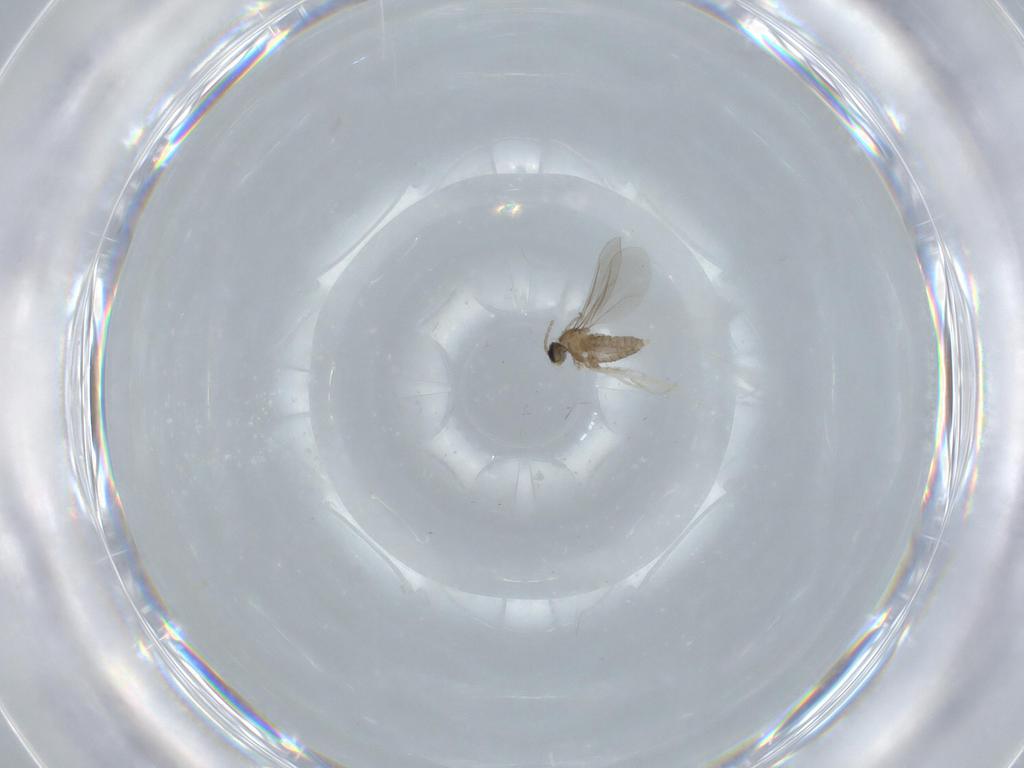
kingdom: Animalia
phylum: Arthropoda
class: Insecta
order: Diptera
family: Cecidomyiidae
